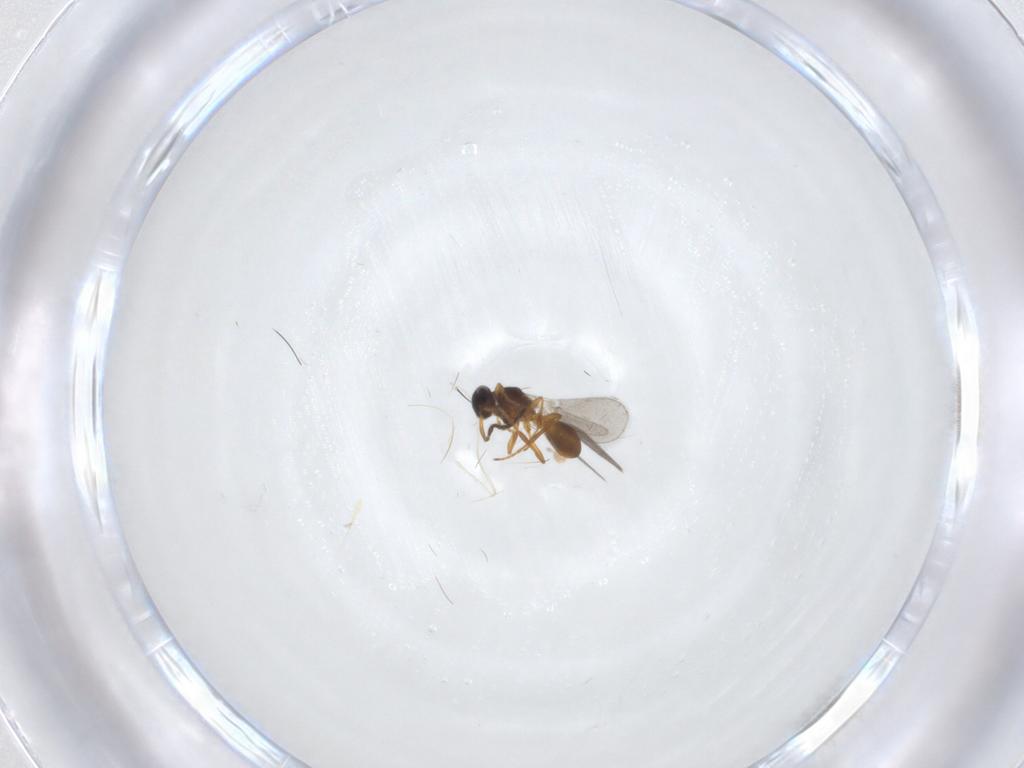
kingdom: Animalia
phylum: Arthropoda
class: Insecta
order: Hymenoptera
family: Platygastridae
